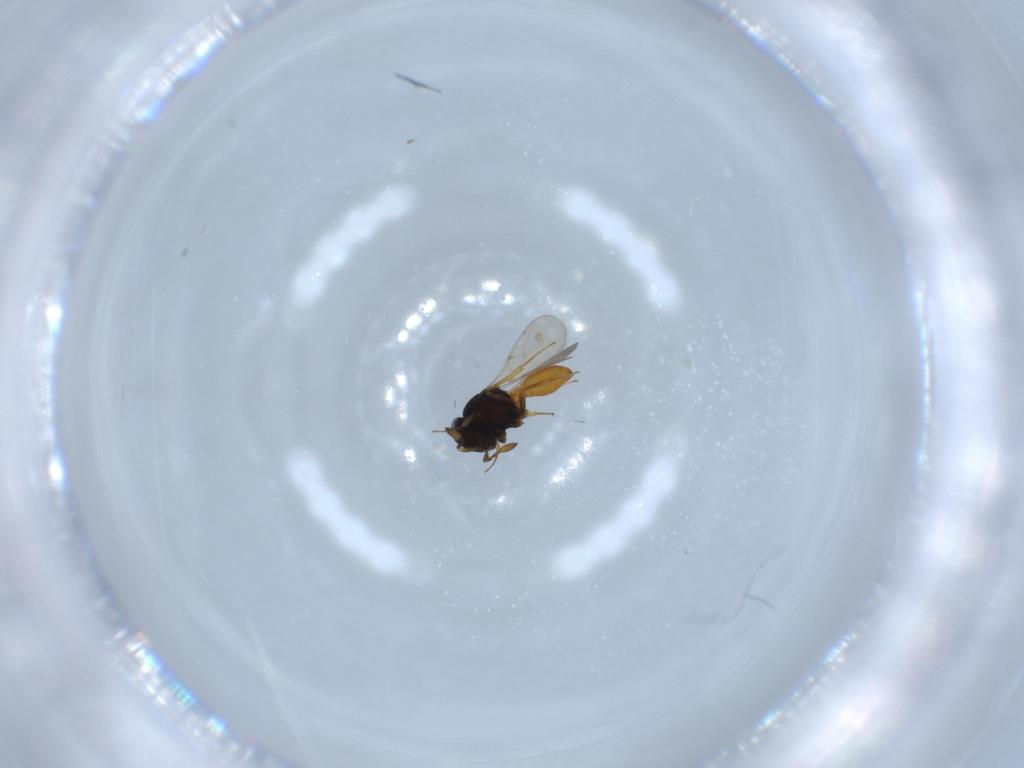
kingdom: Animalia
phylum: Arthropoda
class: Insecta
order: Hymenoptera
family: Scelionidae
